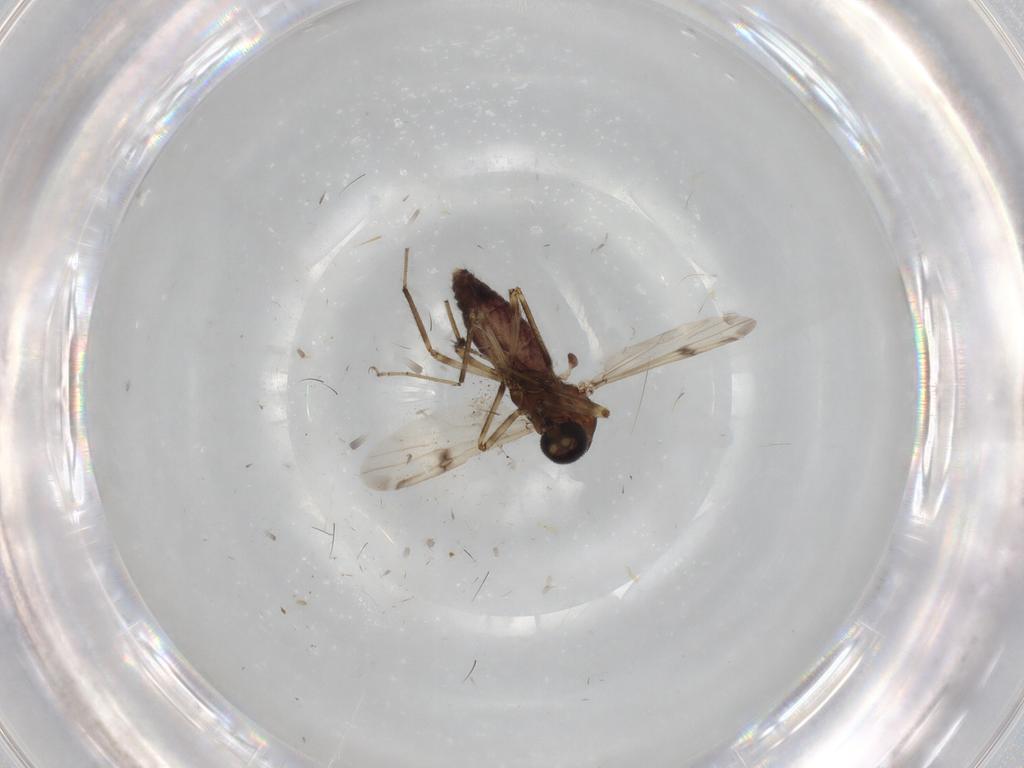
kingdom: Animalia
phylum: Arthropoda
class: Insecta
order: Diptera
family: Ceratopogonidae
